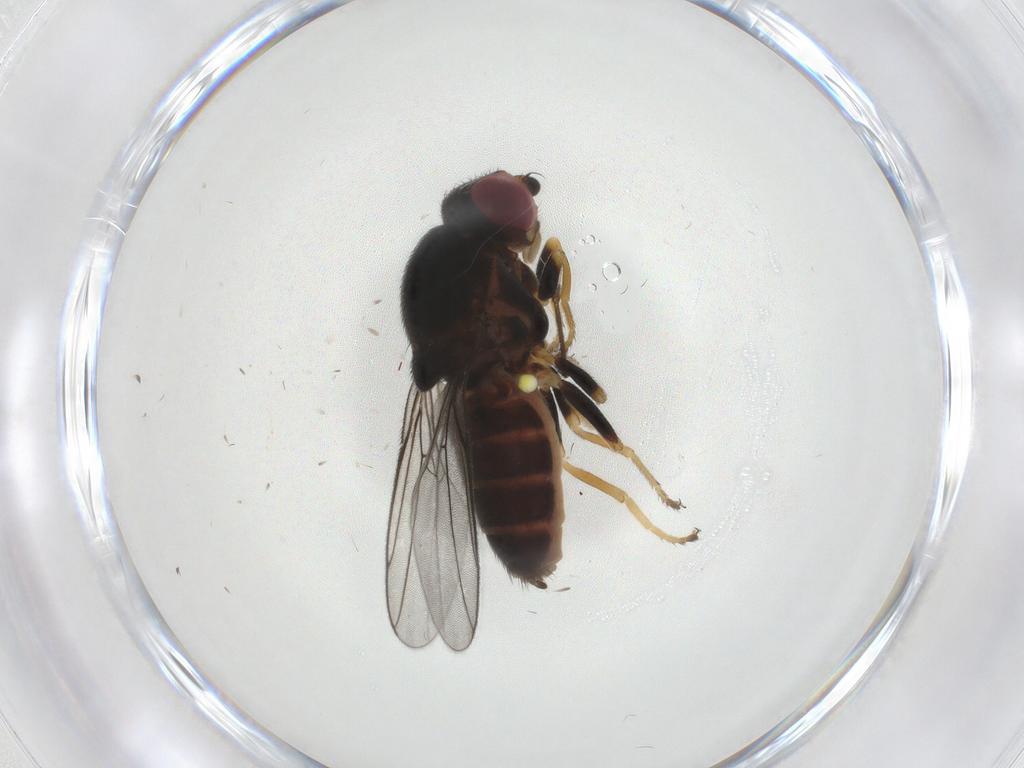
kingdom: Animalia
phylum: Arthropoda
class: Insecta
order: Diptera
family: Chloropidae
